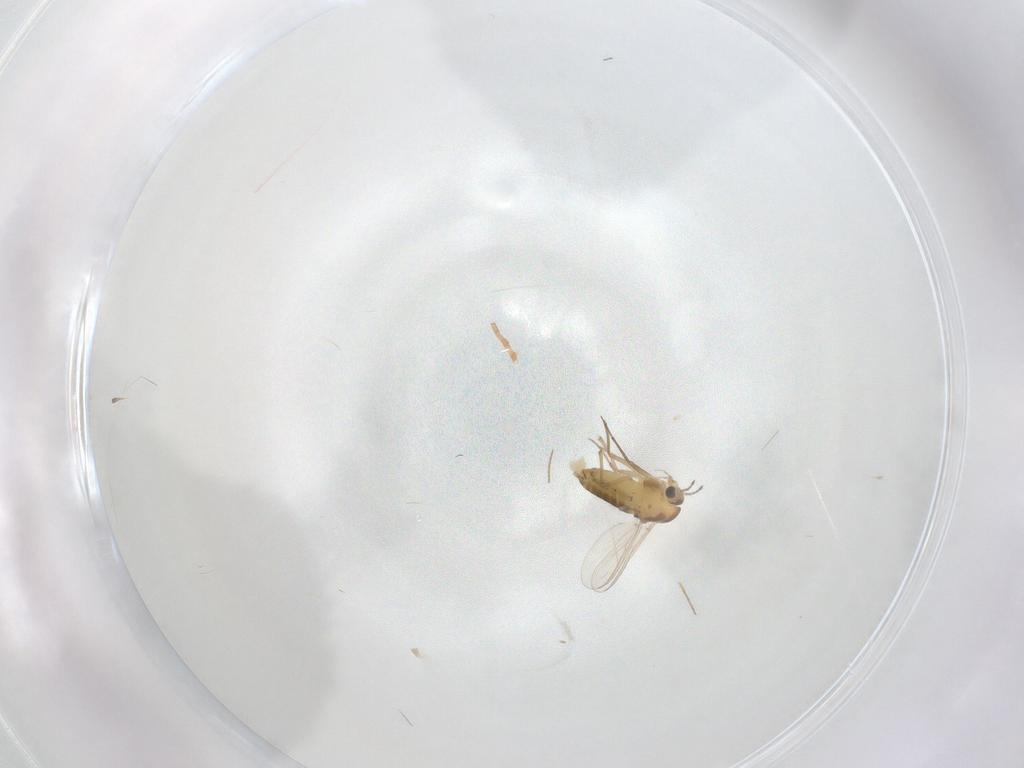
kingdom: Animalia
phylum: Arthropoda
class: Insecta
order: Diptera
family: Chironomidae
